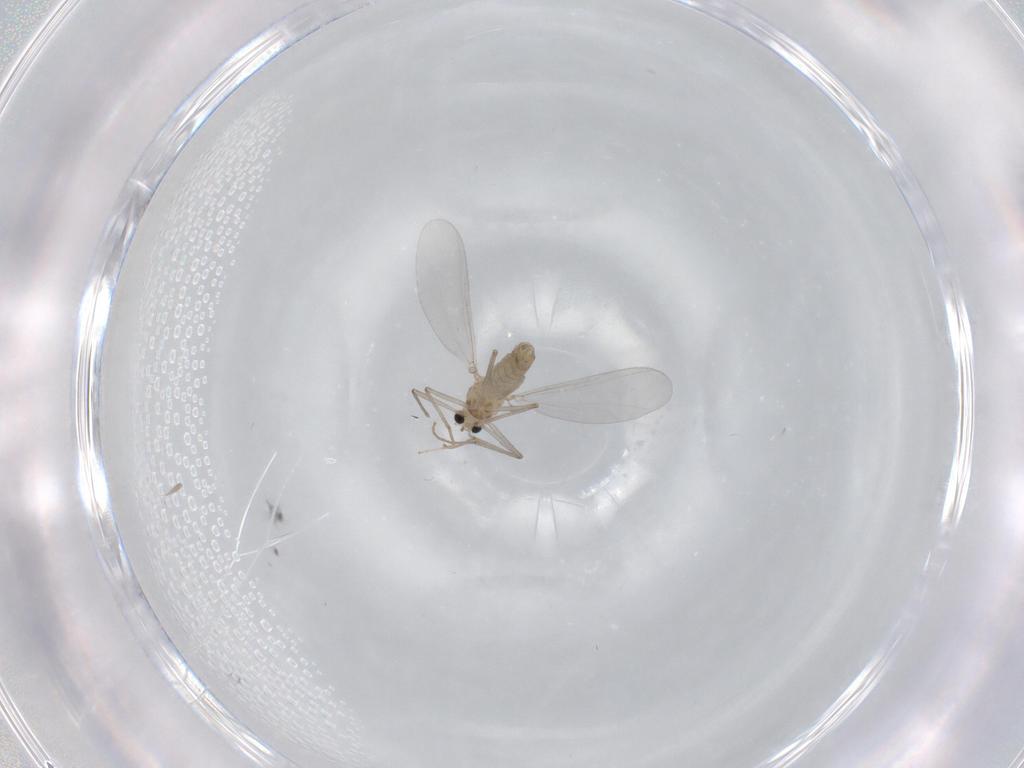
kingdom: Animalia
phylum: Arthropoda
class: Insecta
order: Diptera
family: Chironomidae
